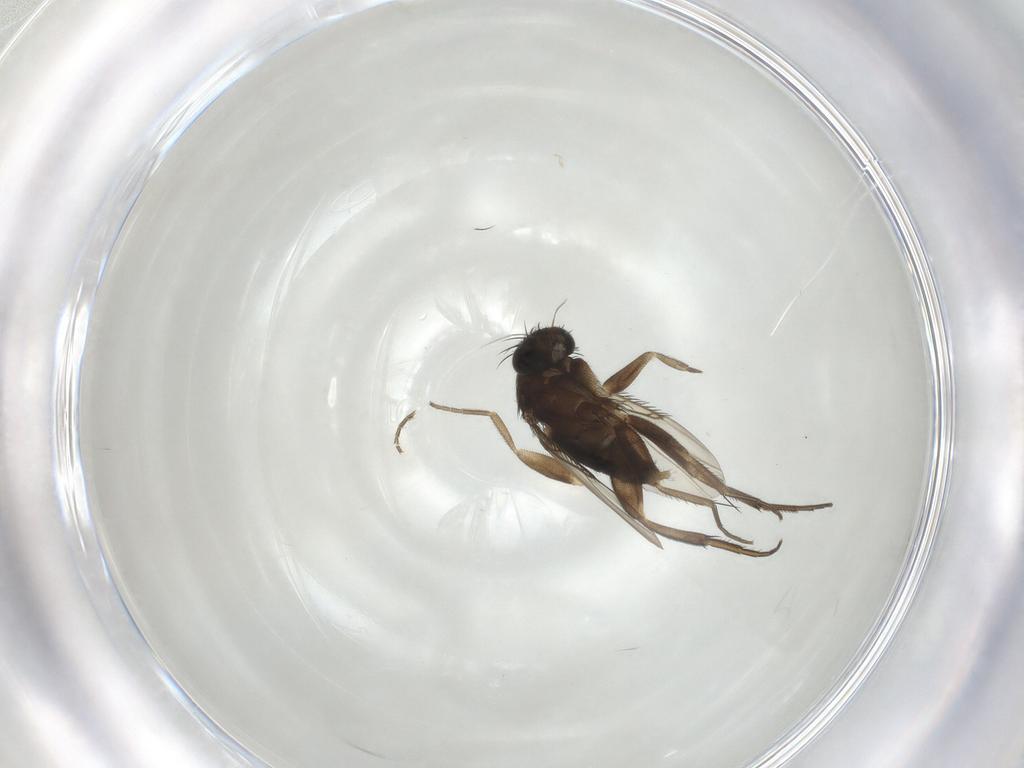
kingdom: Animalia
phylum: Arthropoda
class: Insecta
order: Diptera
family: Phoridae
